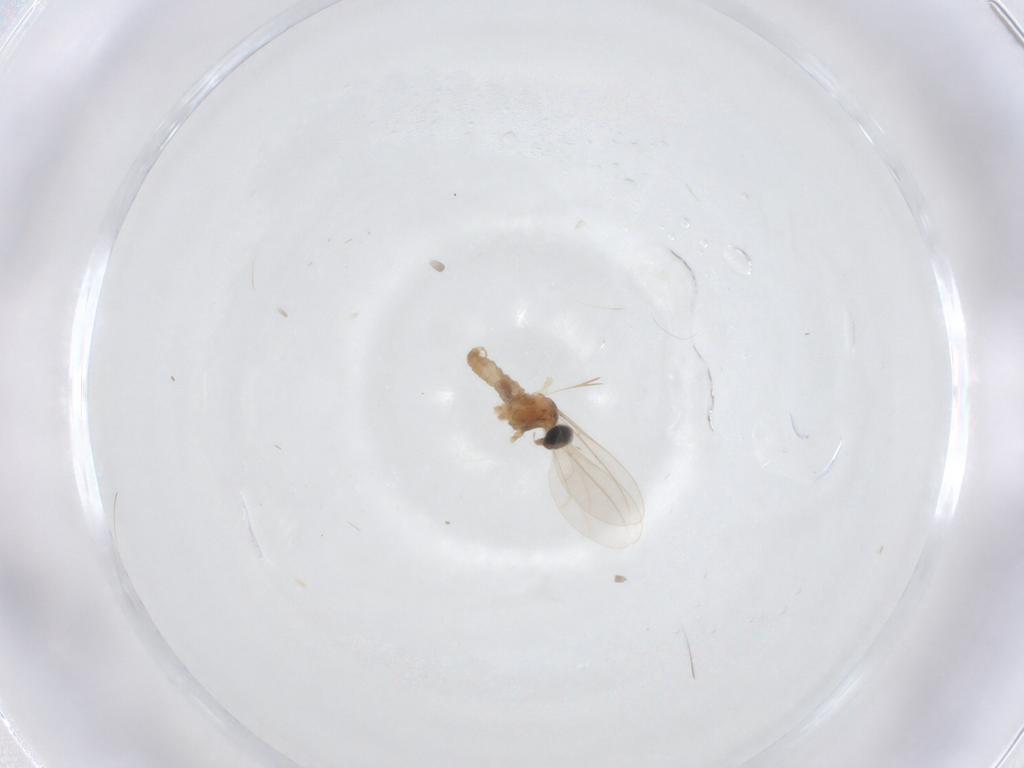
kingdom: Animalia
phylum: Arthropoda
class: Insecta
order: Diptera
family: Cecidomyiidae
